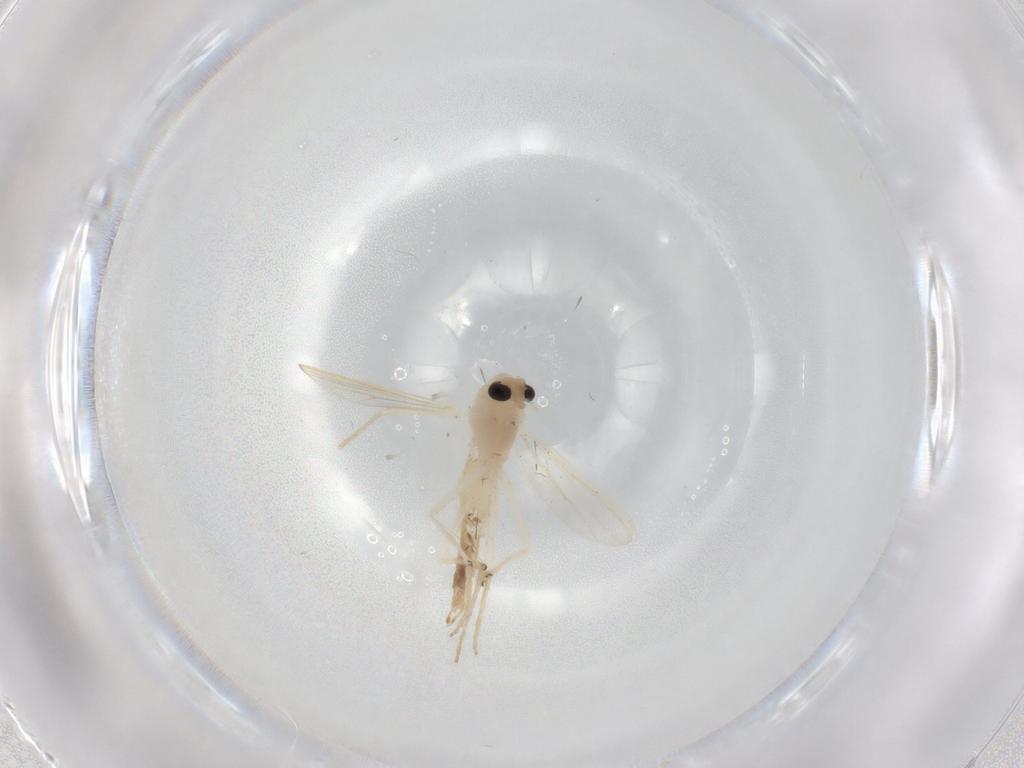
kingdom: Animalia
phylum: Arthropoda
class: Insecta
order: Diptera
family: Chironomidae
